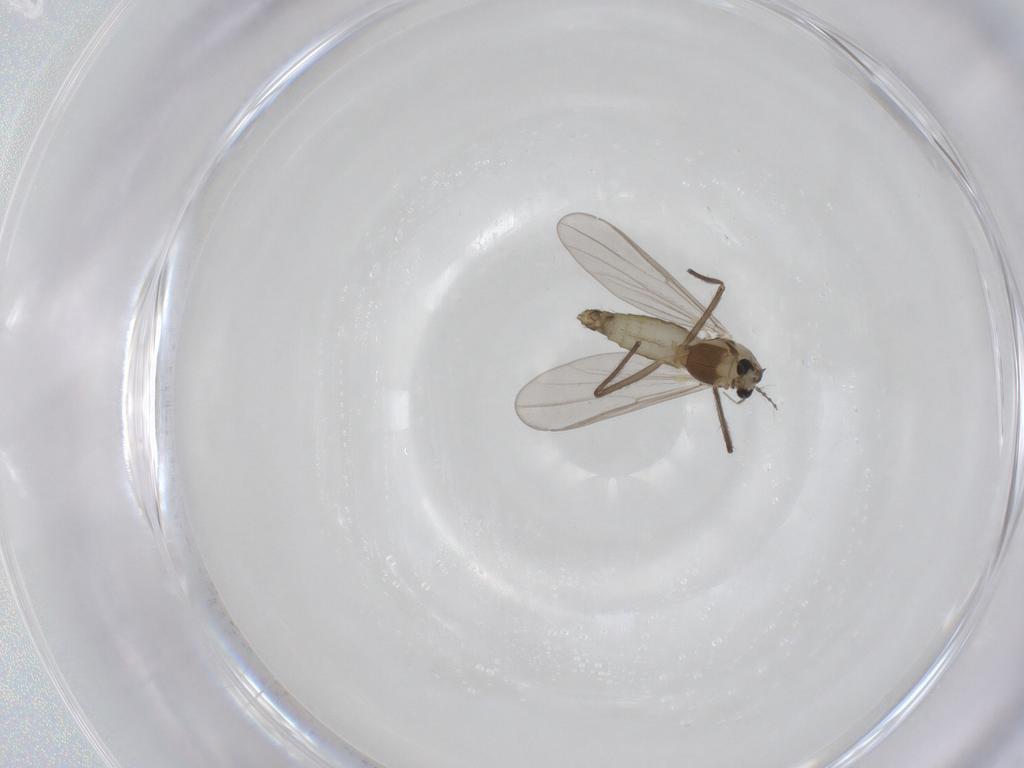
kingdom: Animalia
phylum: Arthropoda
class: Insecta
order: Diptera
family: Chironomidae
